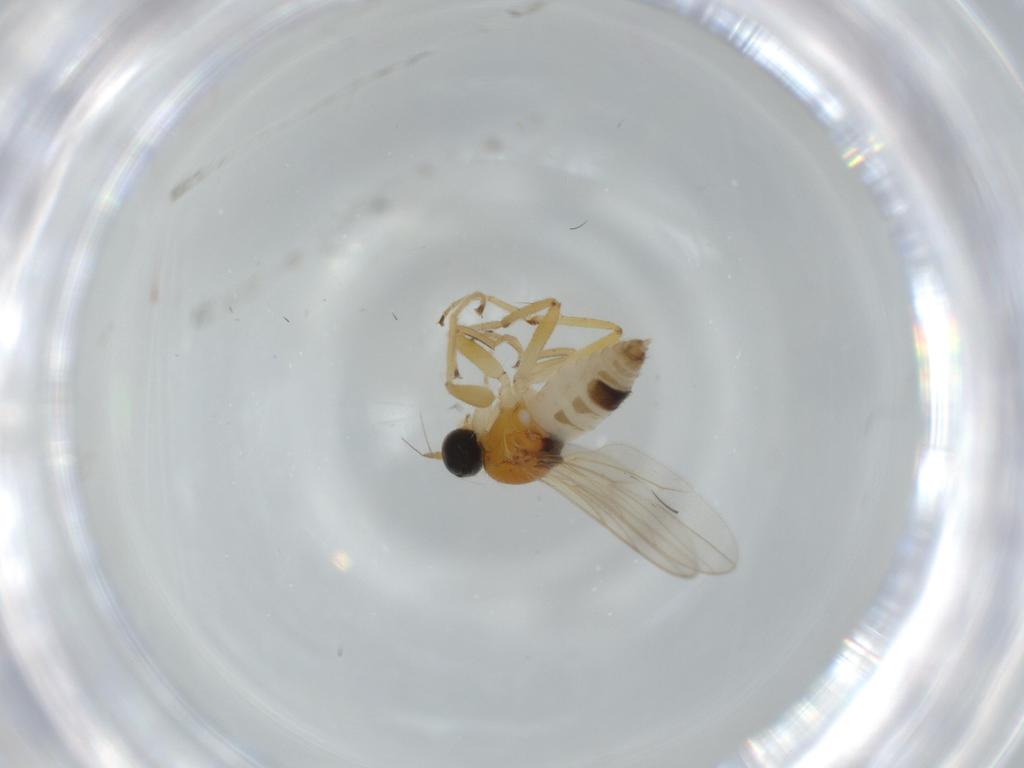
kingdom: Animalia
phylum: Arthropoda
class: Insecta
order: Diptera
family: Hybotidae
